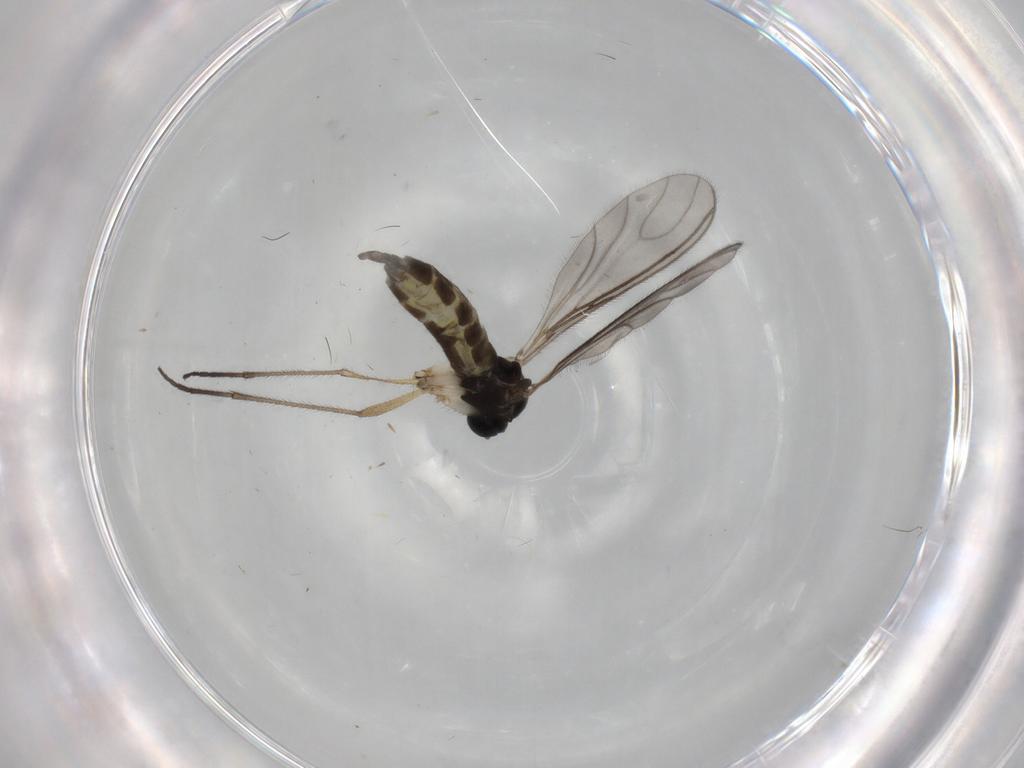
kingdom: Animalia
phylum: Arthropoda
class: Insecta
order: Diptera
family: Sciaridae
